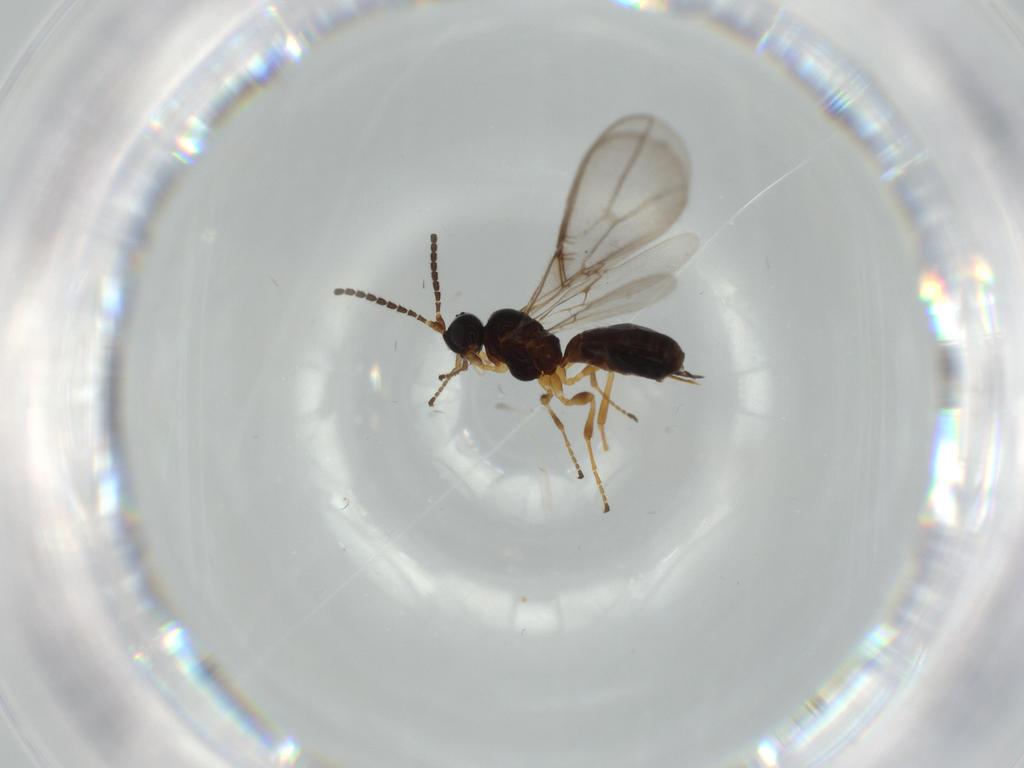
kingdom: Animalia
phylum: Arthropoda
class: Insecta
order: Hymenoptera
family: Braconidae
